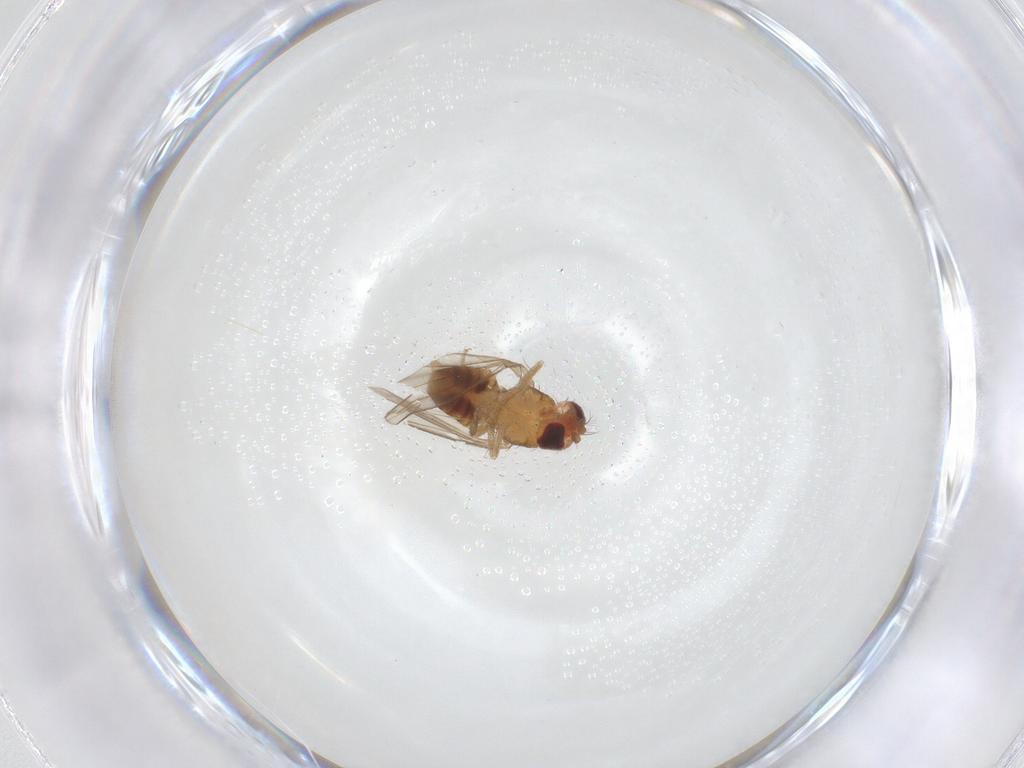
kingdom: Animalia
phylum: Arthropoda
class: Insecta
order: Diptera
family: Drosophilidae
